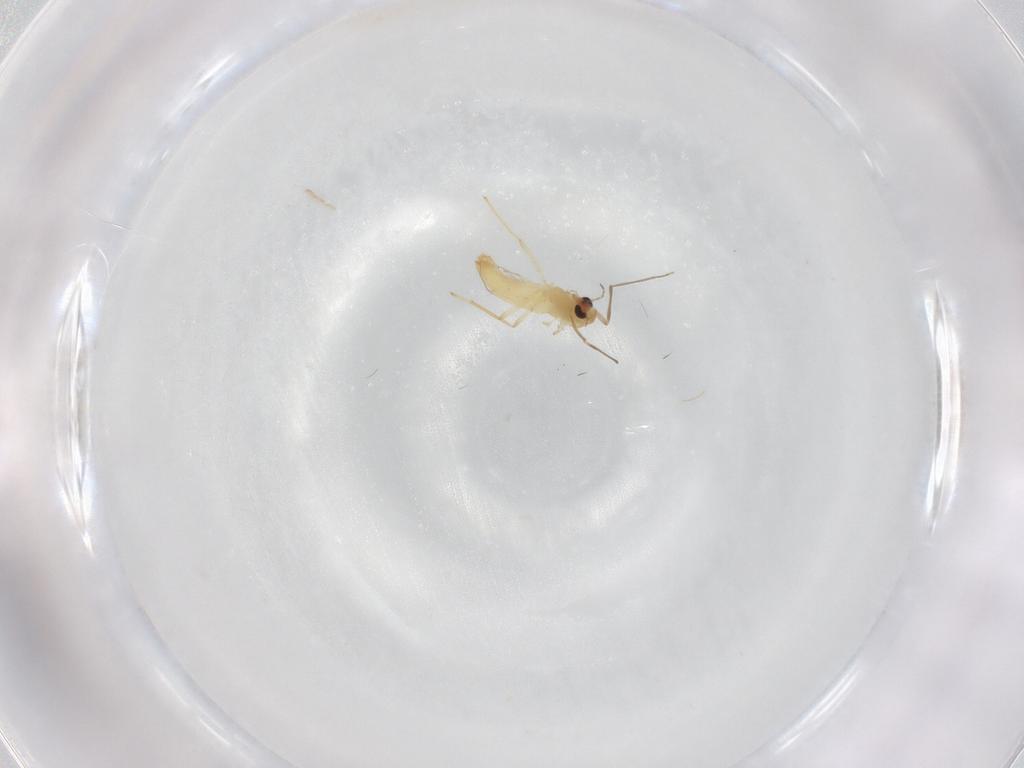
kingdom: Animalia
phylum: Arthropoda
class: Insecta
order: Diptera
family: Chironomidae
